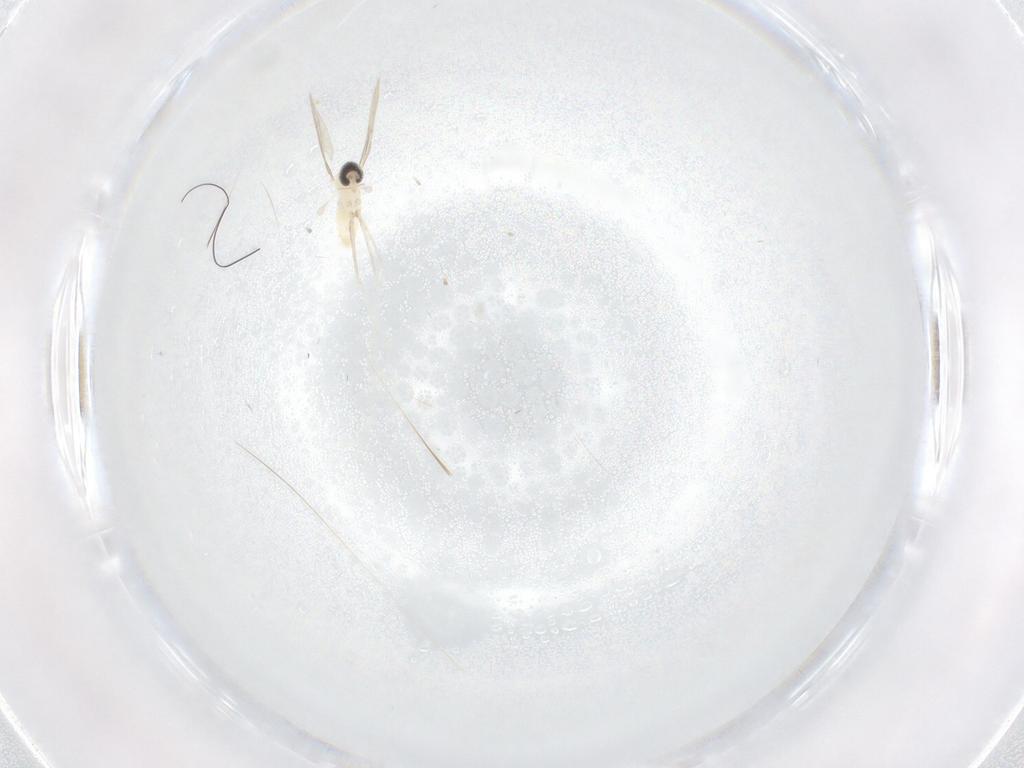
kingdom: Animalia
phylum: Arthropoda
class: Insecta
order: Diptera
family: Cecidomyiidae
